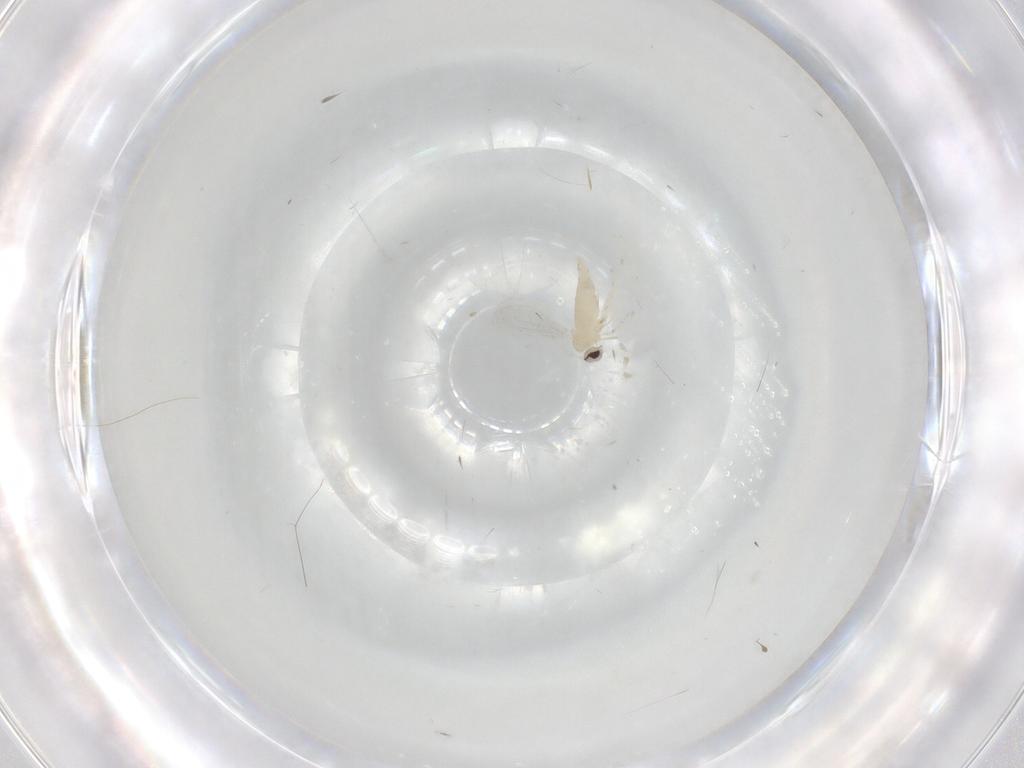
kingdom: Animalia
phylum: Arthropoda
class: Insecta
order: Diptera
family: Cecidomyiidae
